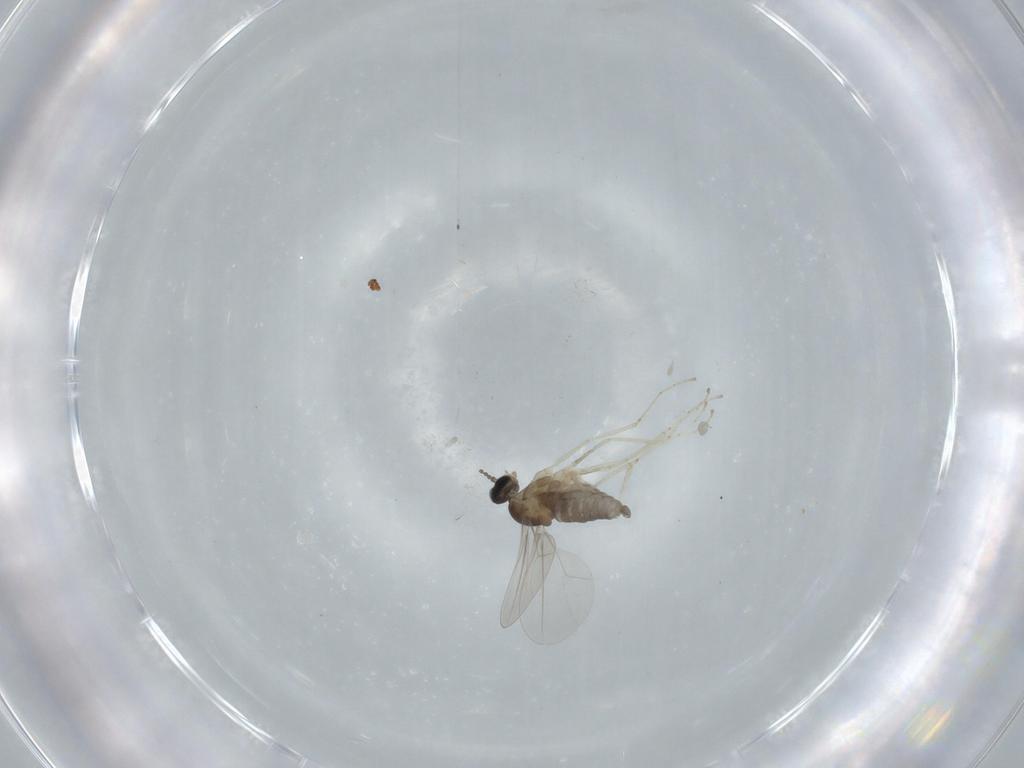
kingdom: Animalia
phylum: Arthropoda
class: Insecta
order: Diptera
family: Cecidomyiidae
